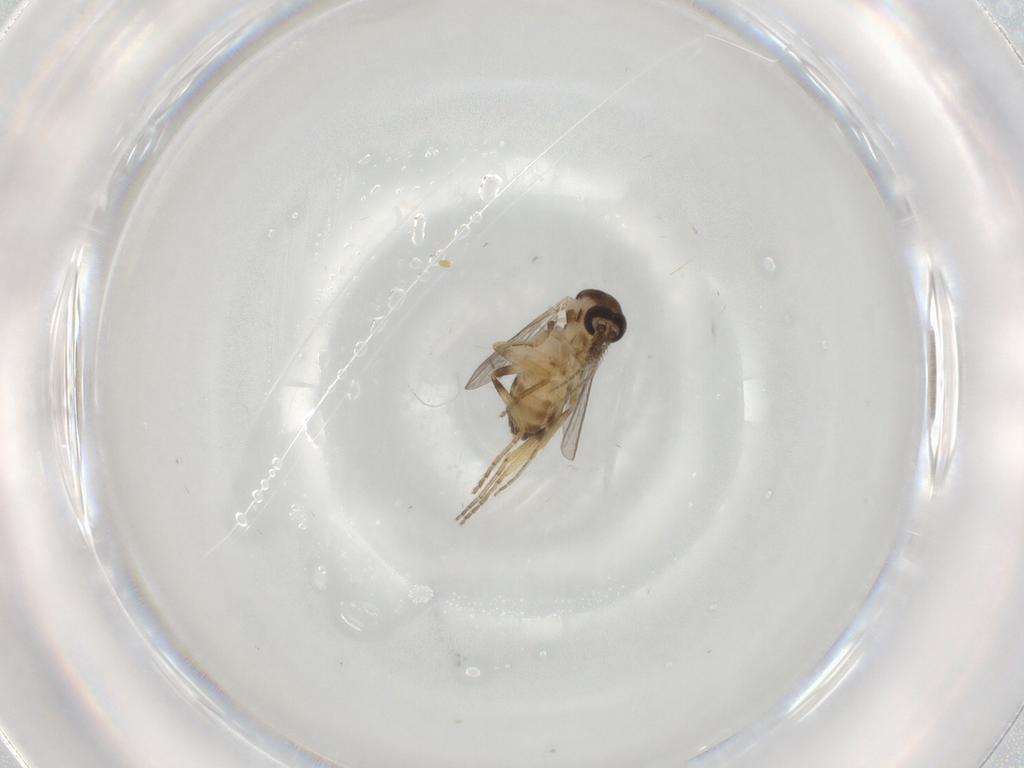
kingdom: Animalia
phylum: Arthropoda
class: Insecta
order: Diptera
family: Ceratopogonidae
